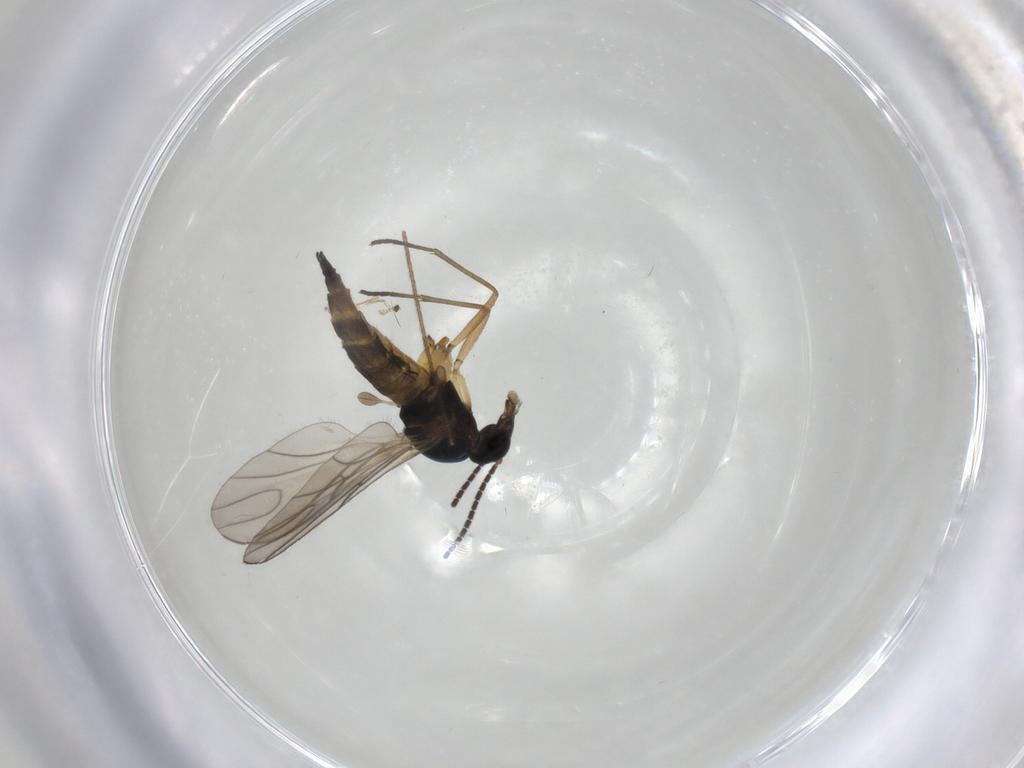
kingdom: Animalia
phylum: Arthropoda
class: Insecta
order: Diptera
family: Sciaridae
